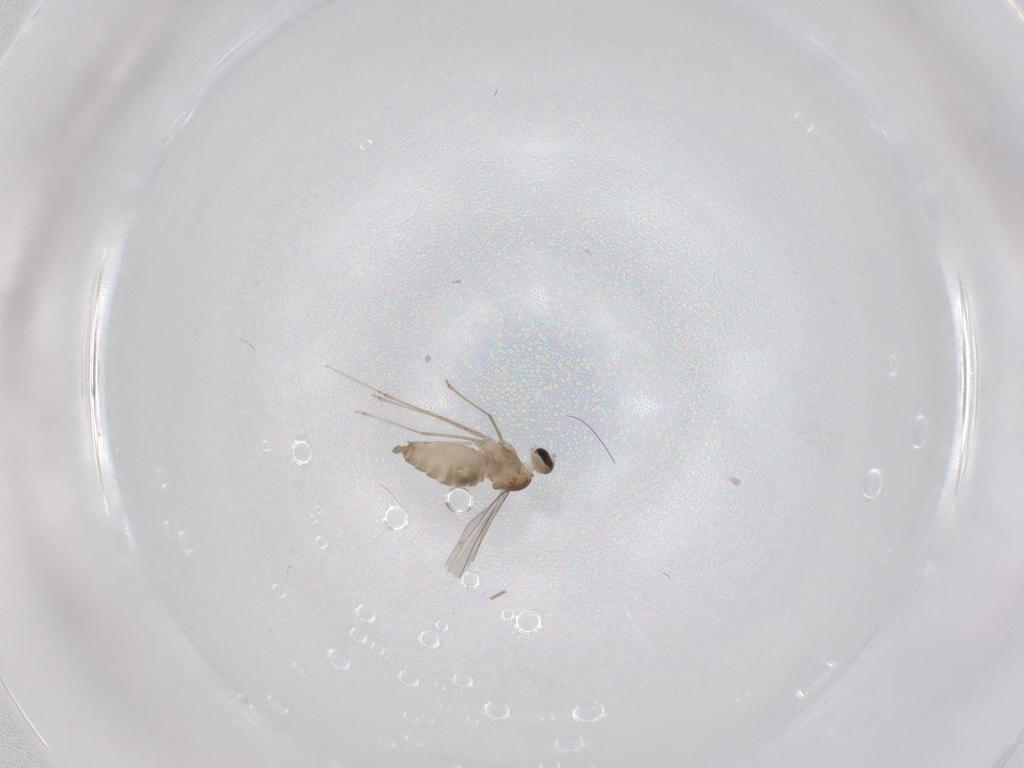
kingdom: Animalia
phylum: Arthropoda
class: Insecta
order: Diptera
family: Cecidomyiidae
